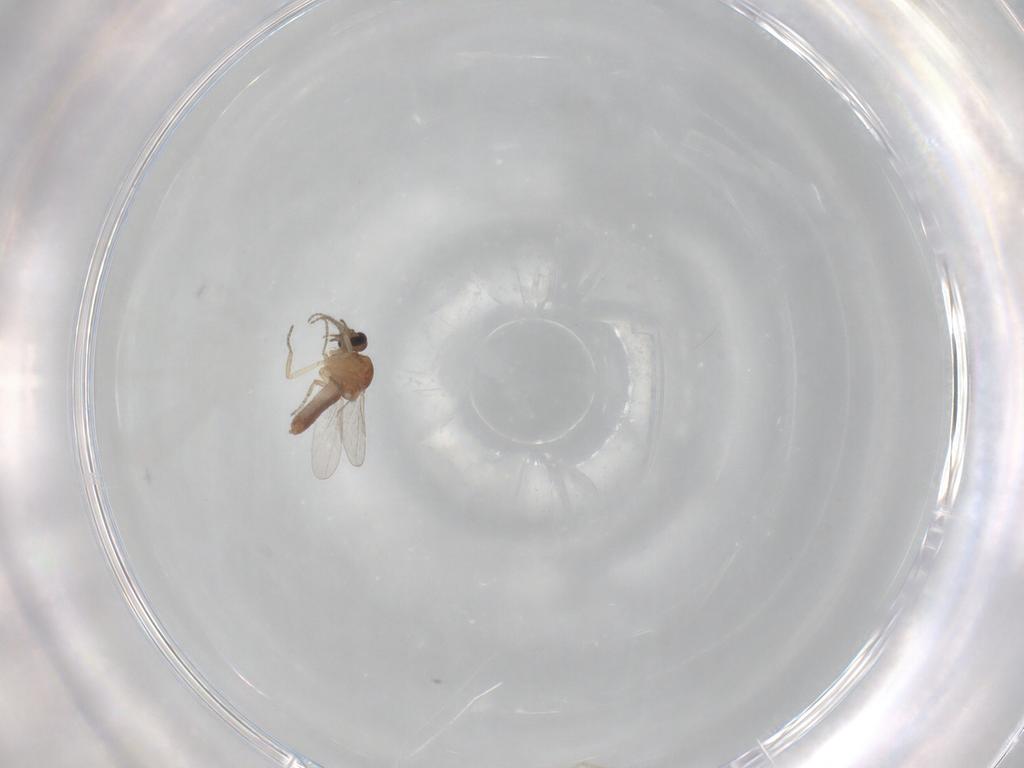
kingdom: Animalia
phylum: Arthropoda
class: Insecta
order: Diptera
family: Chironomidae
